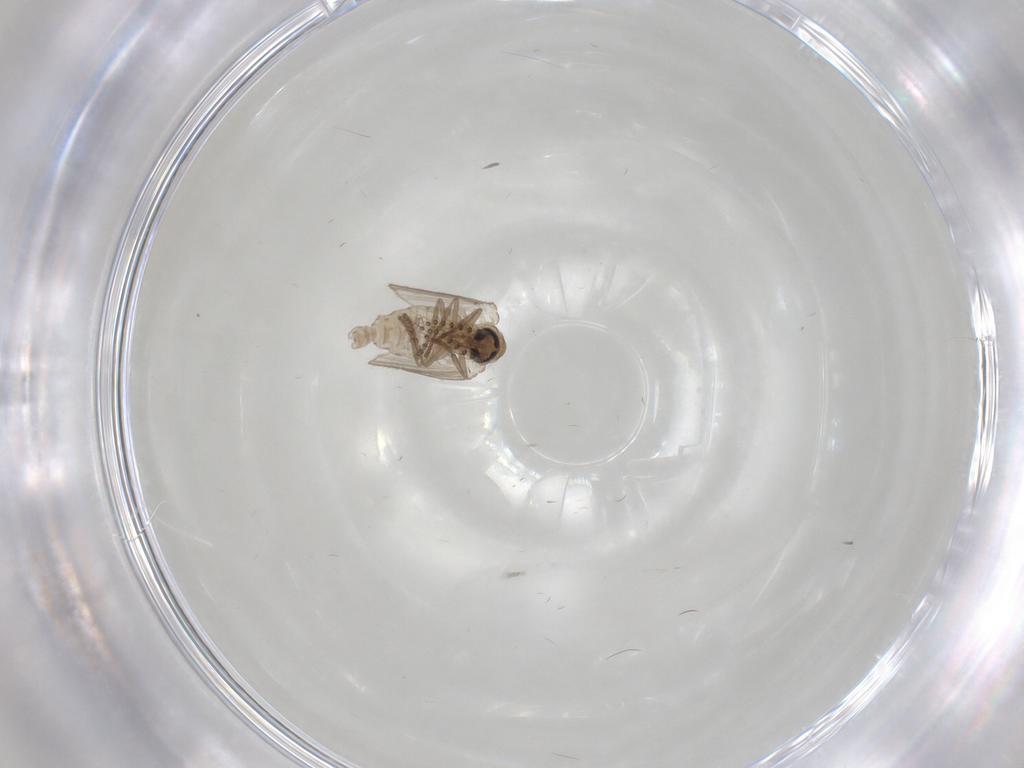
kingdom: Animalia
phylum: Arthropoda
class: Insecta
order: Diptera
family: Psychodidae
